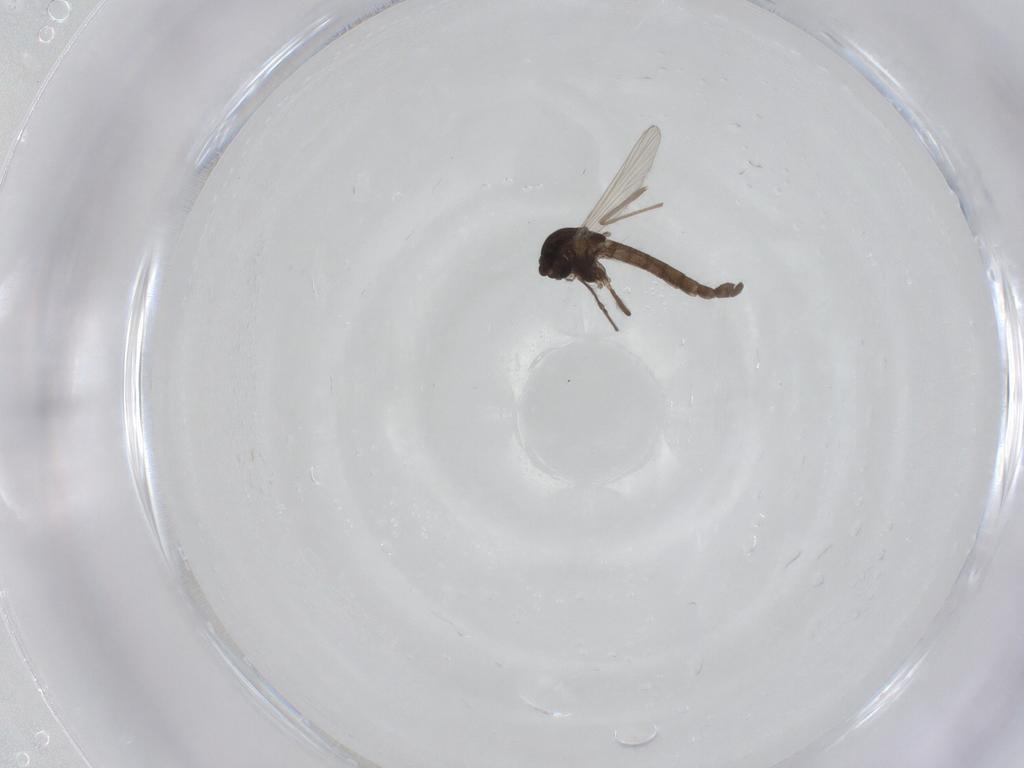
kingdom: Animalia
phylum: Arthropoda
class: Insecta
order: Diptera
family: Chironomidae
